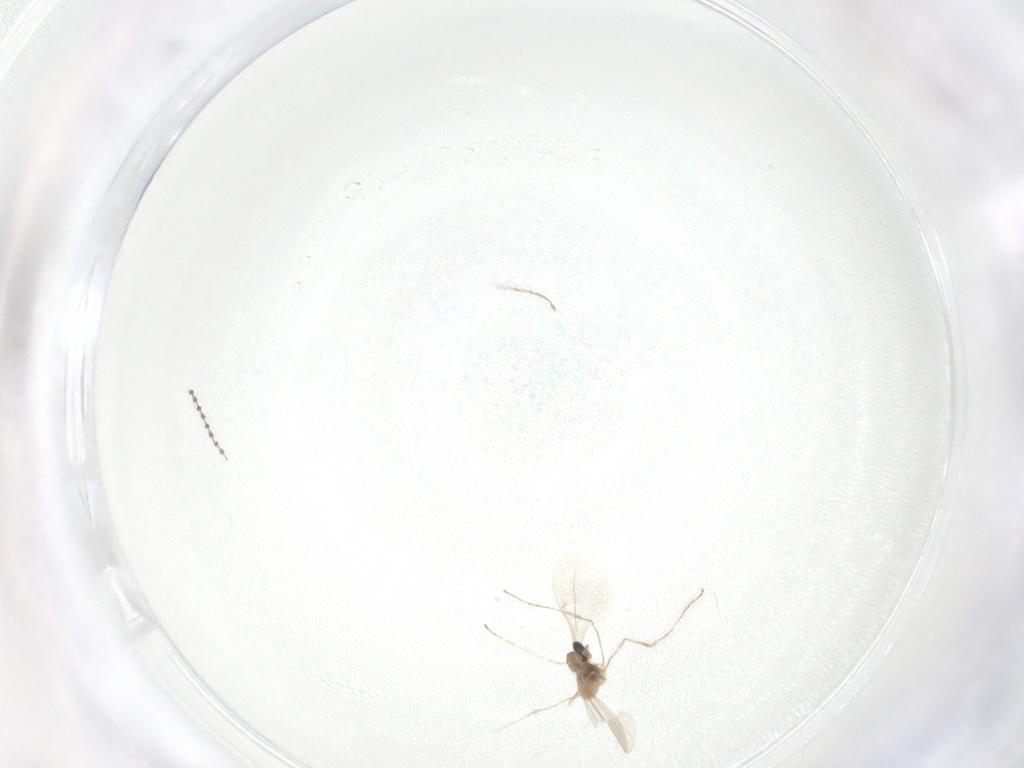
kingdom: Animalia
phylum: Arthropoda
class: Insecta
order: Diptera
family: Cecidomyiidae
